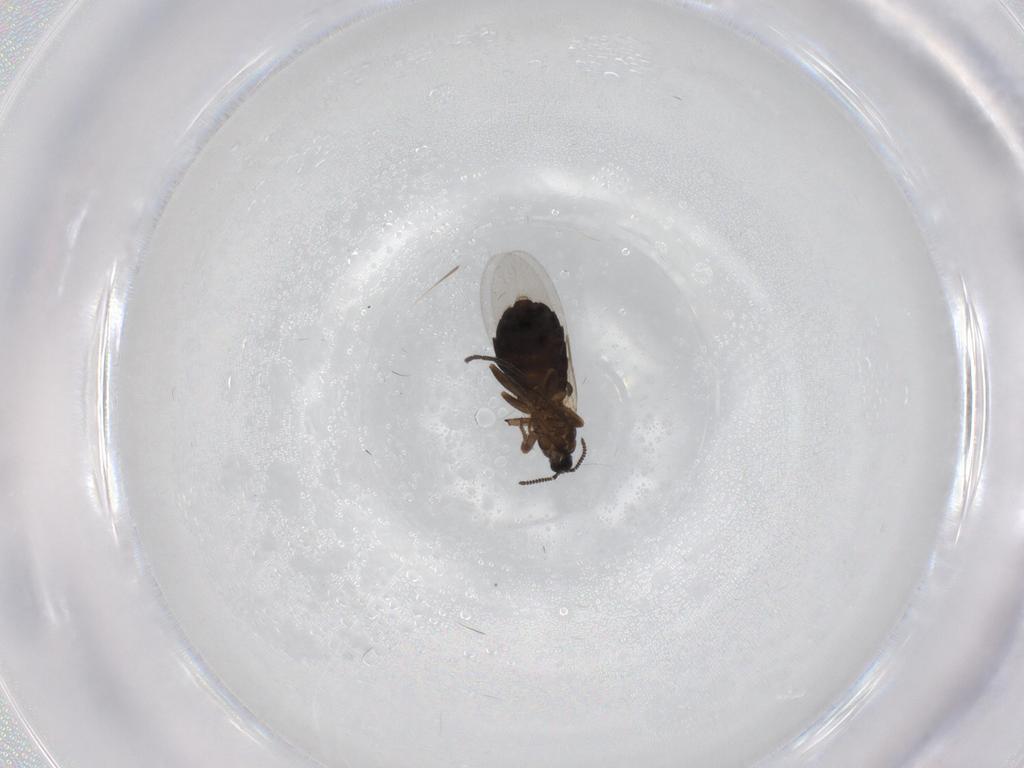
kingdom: Animalia
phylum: Arthropoda
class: Insecta
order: Diptera
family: Scatopsidae
